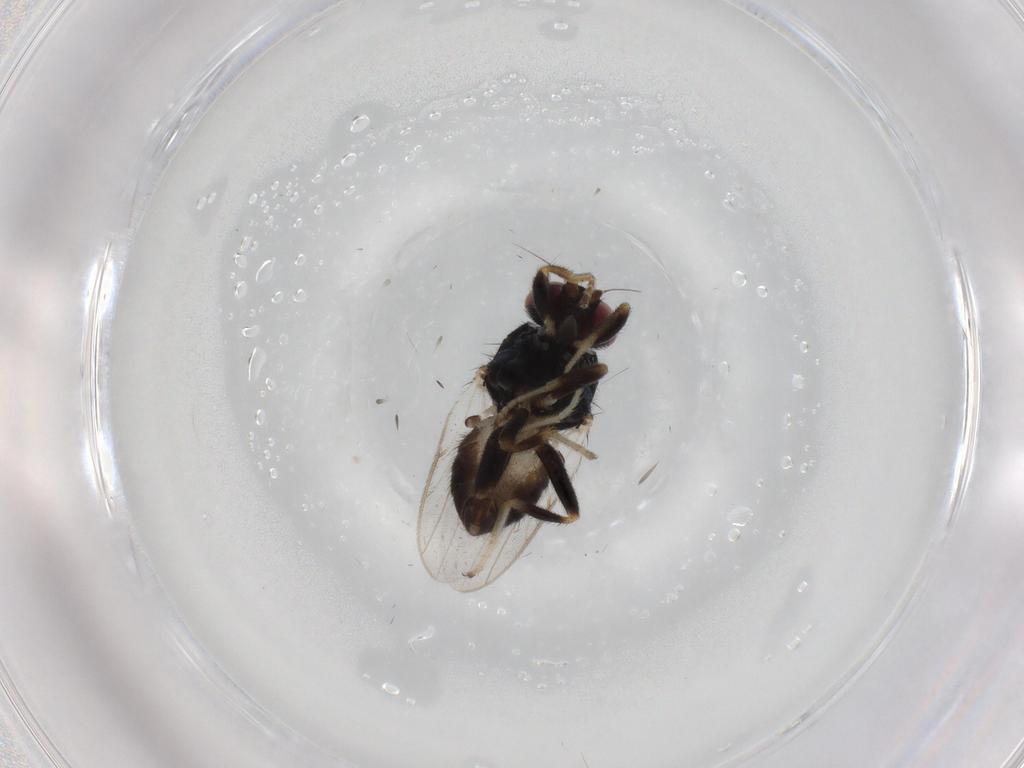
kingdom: Animalia
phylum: Arthropoda
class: Insecta
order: Diptera
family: Chloropidae
